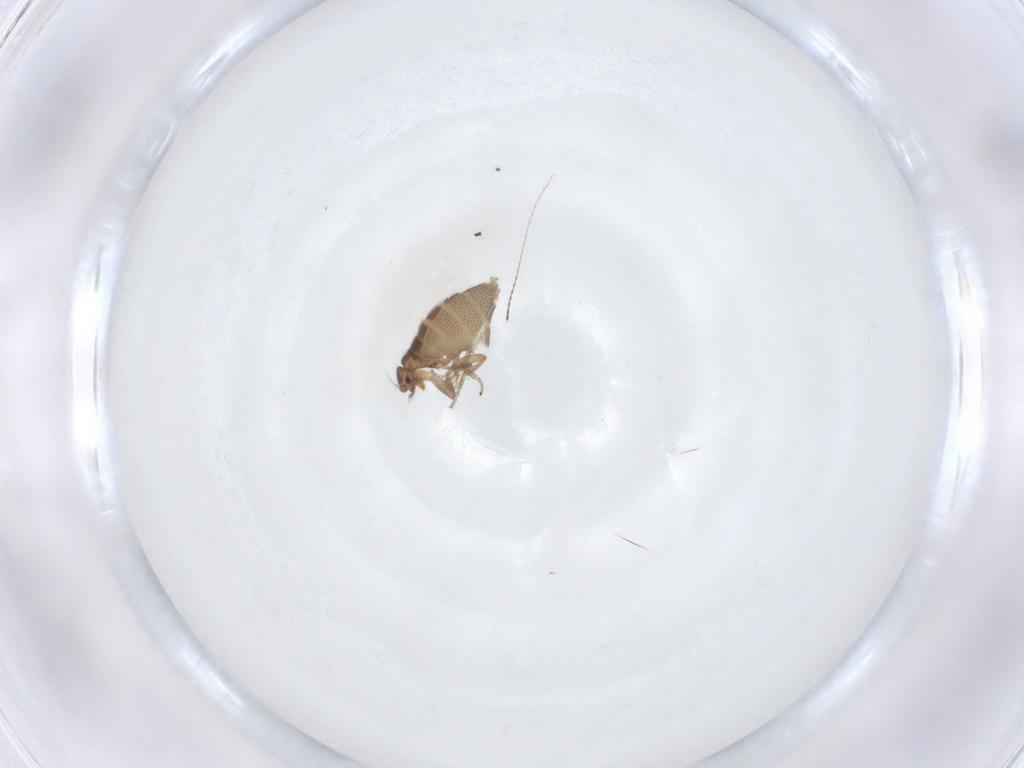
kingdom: Animalia
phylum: Arthropoda
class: Insecta
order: Diptera
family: Phoridae
